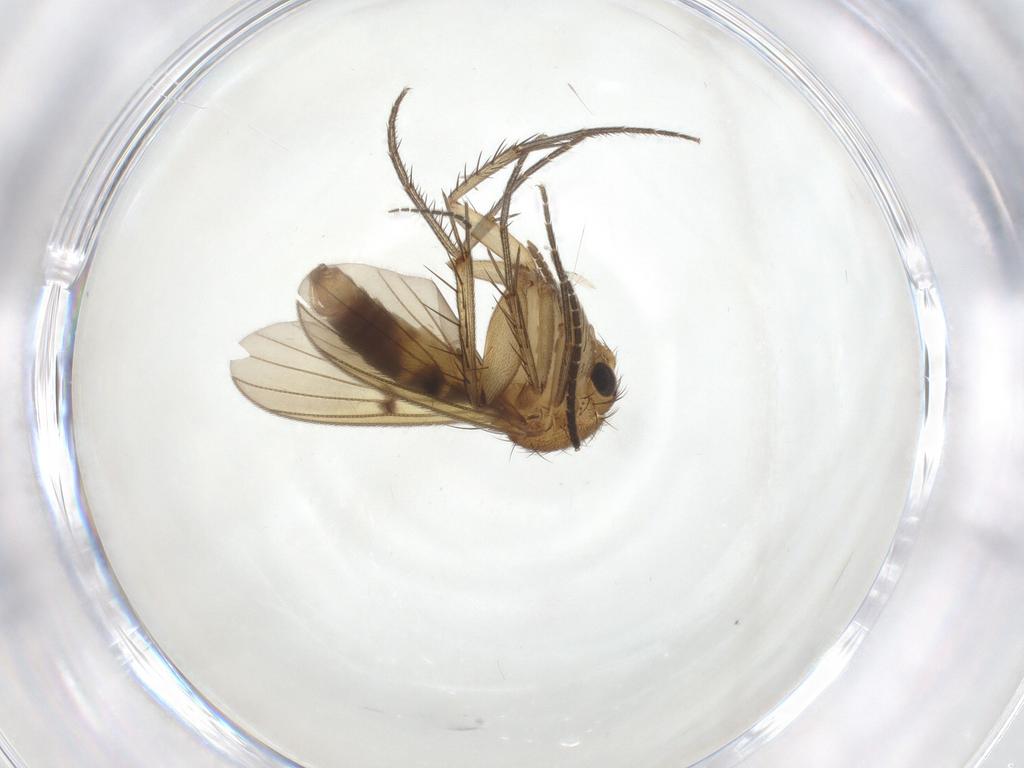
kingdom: Animalia
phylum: Arthropoda
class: Insecta
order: Diptera
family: Mycetophilidae
